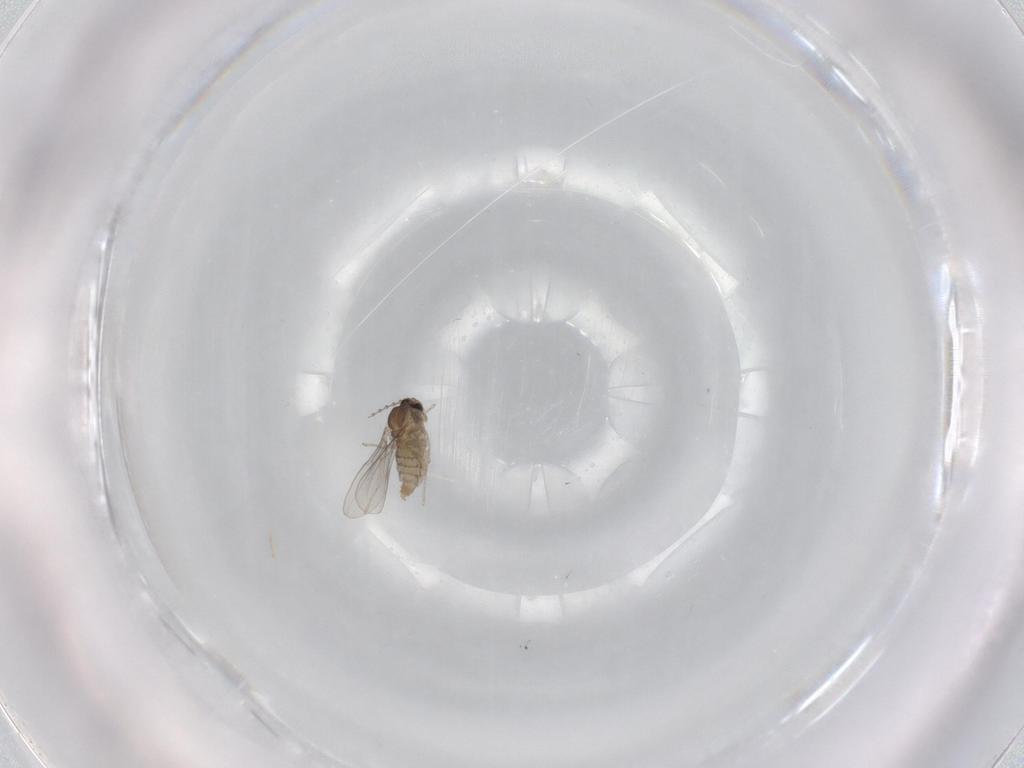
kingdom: Animalia
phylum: Arthropoda
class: Insecta
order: Diptera
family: Cecidomyiidae
